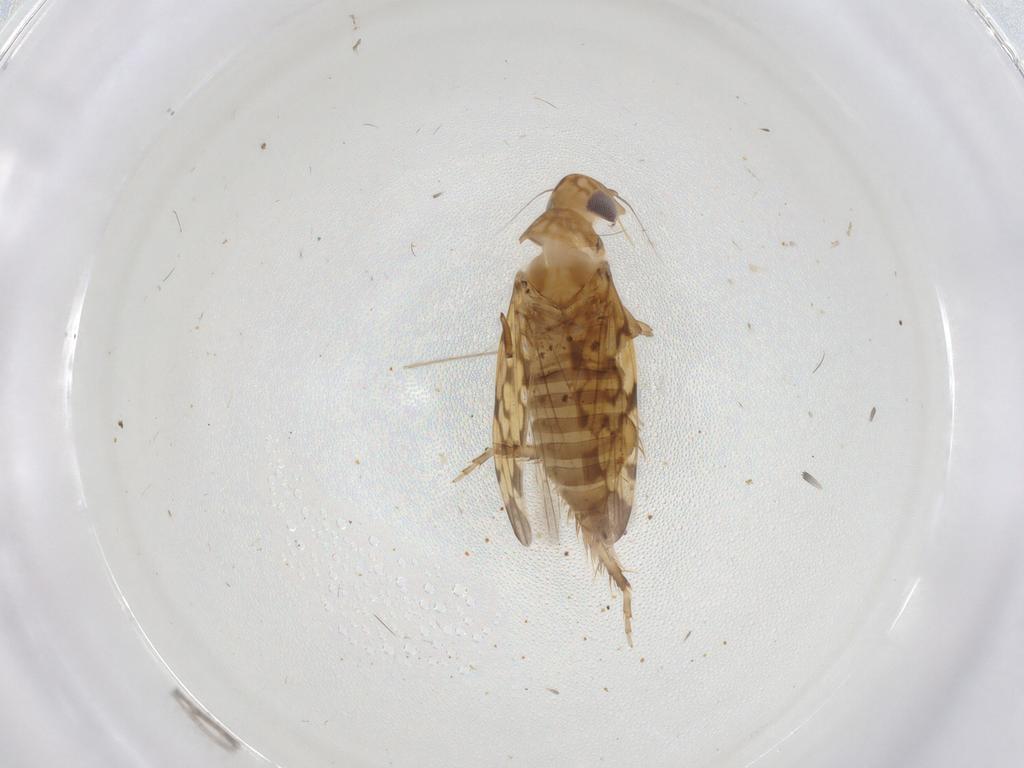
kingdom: Animalia
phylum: Arthropoda
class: Insecta
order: Hemiptera
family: Cicadellidae
